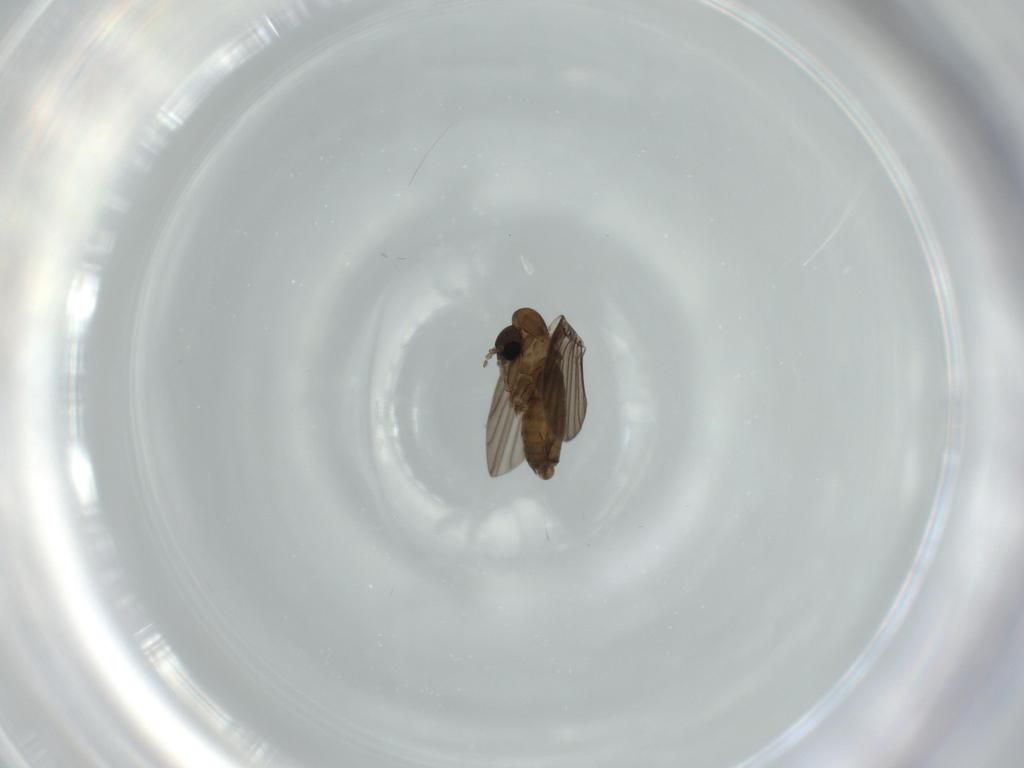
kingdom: Animalia
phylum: Arthropoda
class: Insecta
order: Diptera
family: Psychodidae
